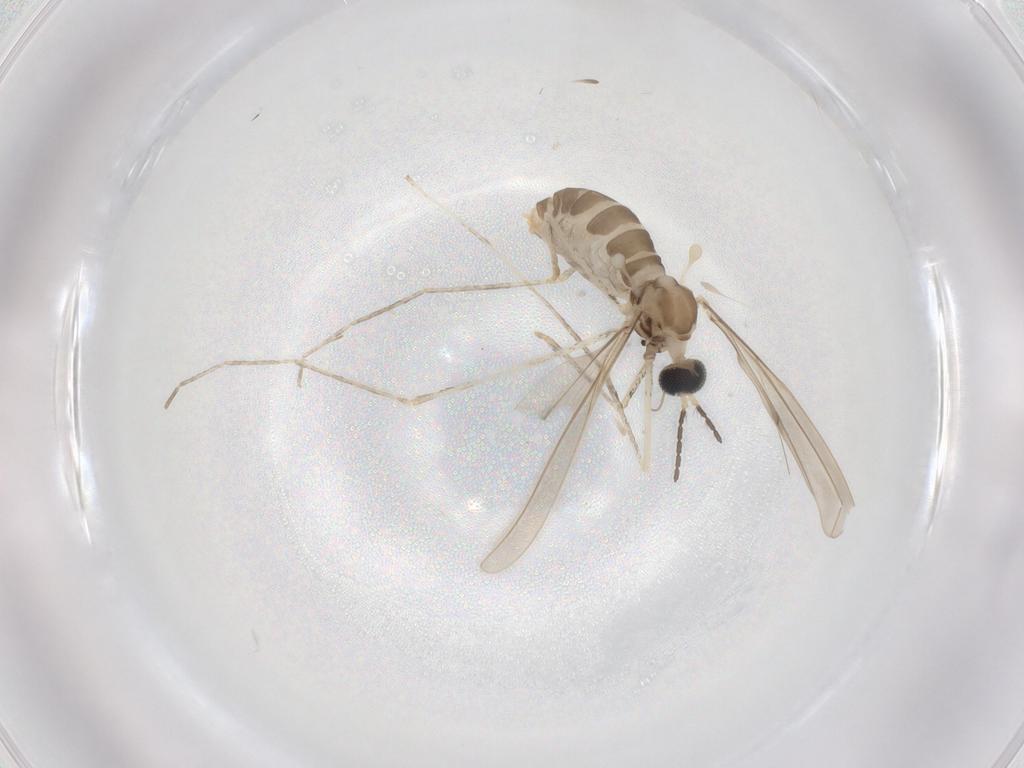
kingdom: Animalia
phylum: Arthropoda
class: Insecta
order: Diptera
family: Cecidomyiidae
